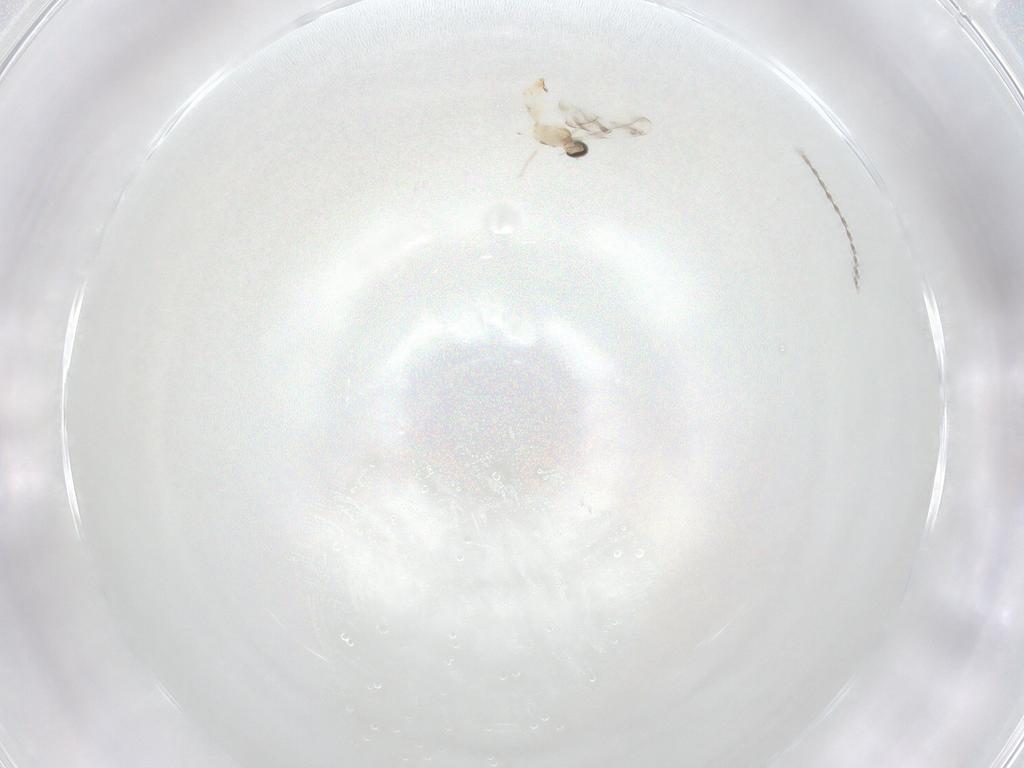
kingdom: Animalia
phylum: Arthropoda
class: Insecta
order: Diptera
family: Cecidomyiidae
